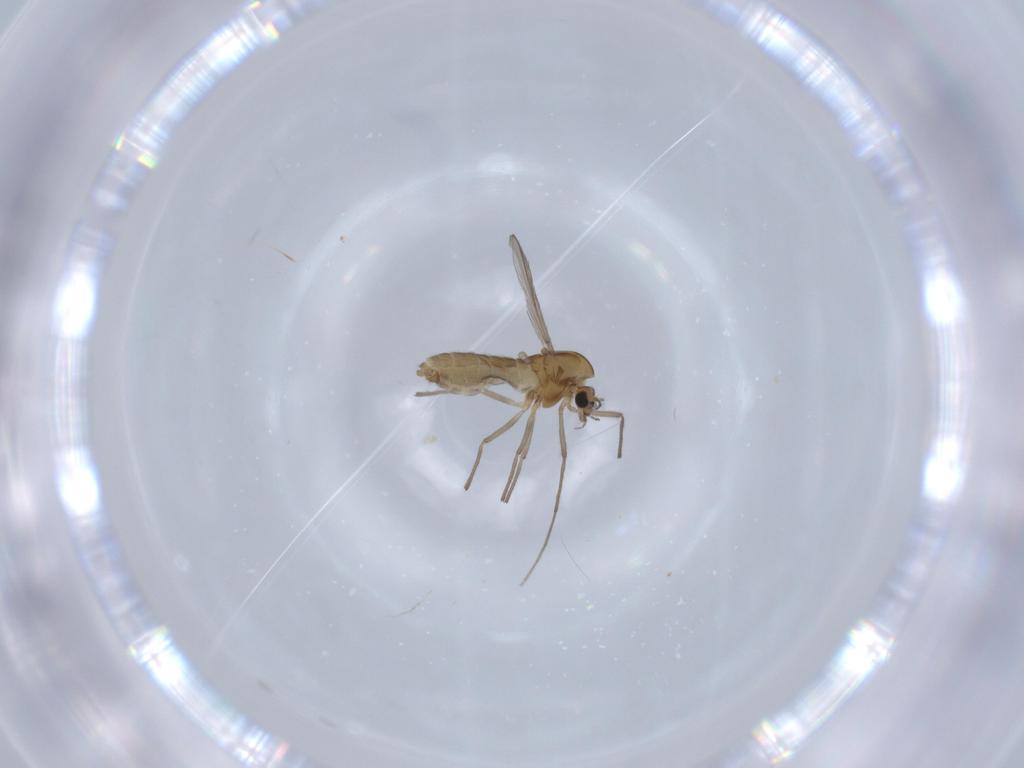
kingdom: Animalia
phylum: Arthropoda
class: Insecta
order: Diptera
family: Chironomidae
